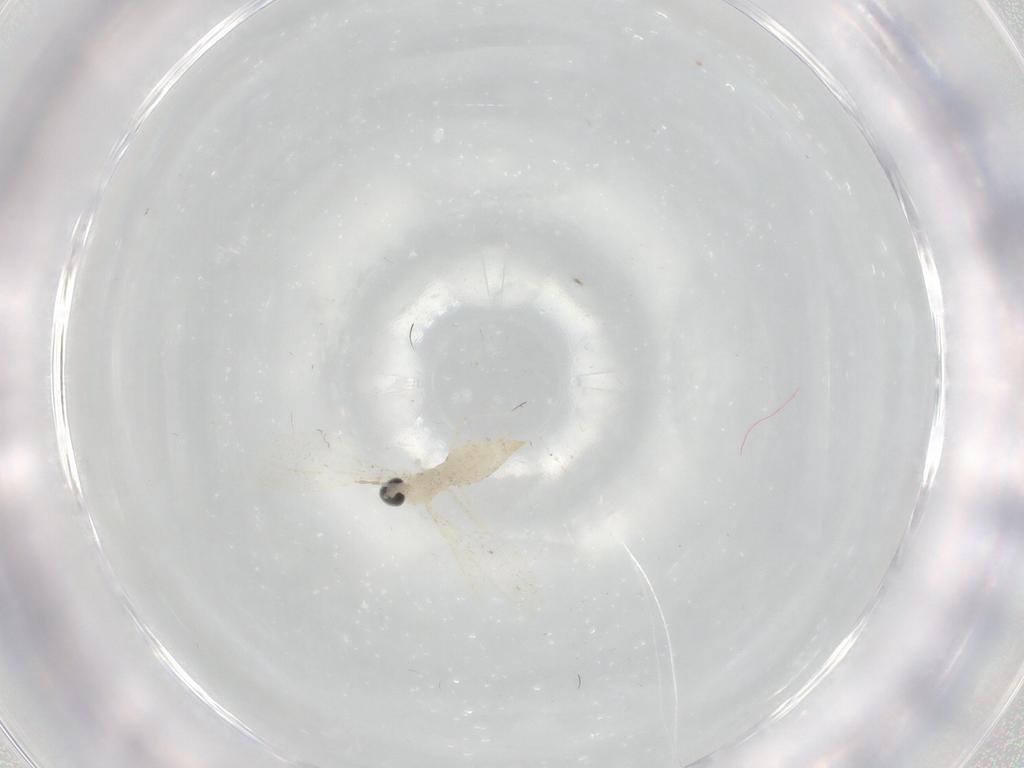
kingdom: Animalia
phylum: Arthropoda
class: Insecta
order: Diptera
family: Cecidomyiidae
